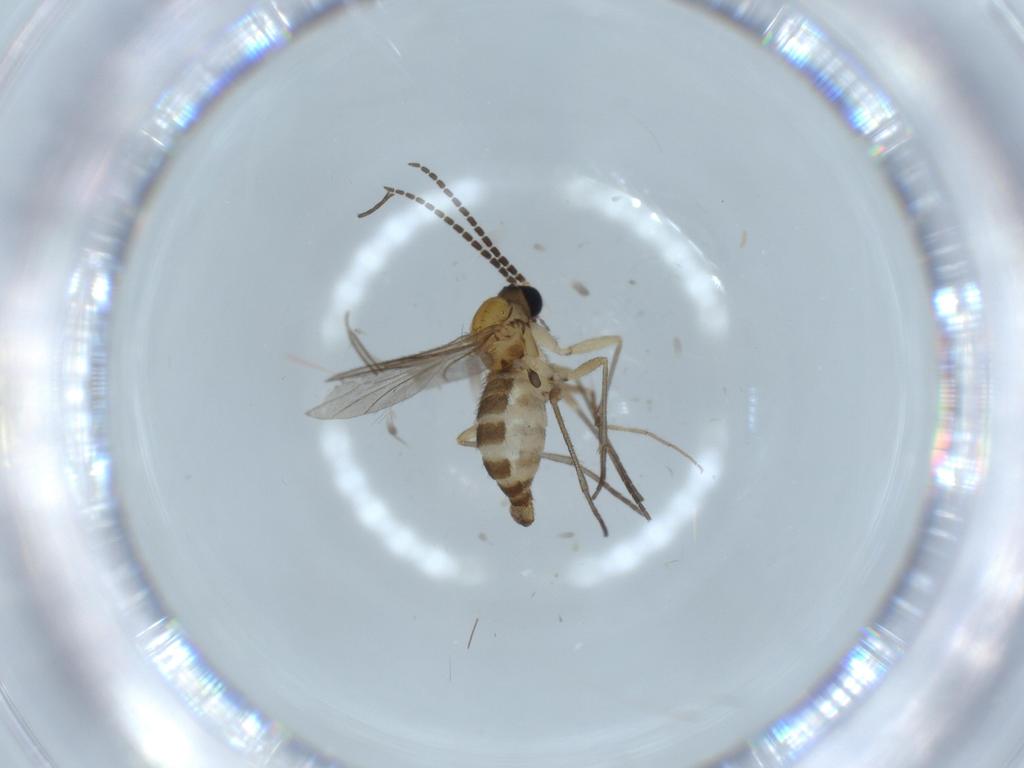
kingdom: Animalia
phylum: Arthropoda
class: Insecta
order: Diptera
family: Sciaridae
